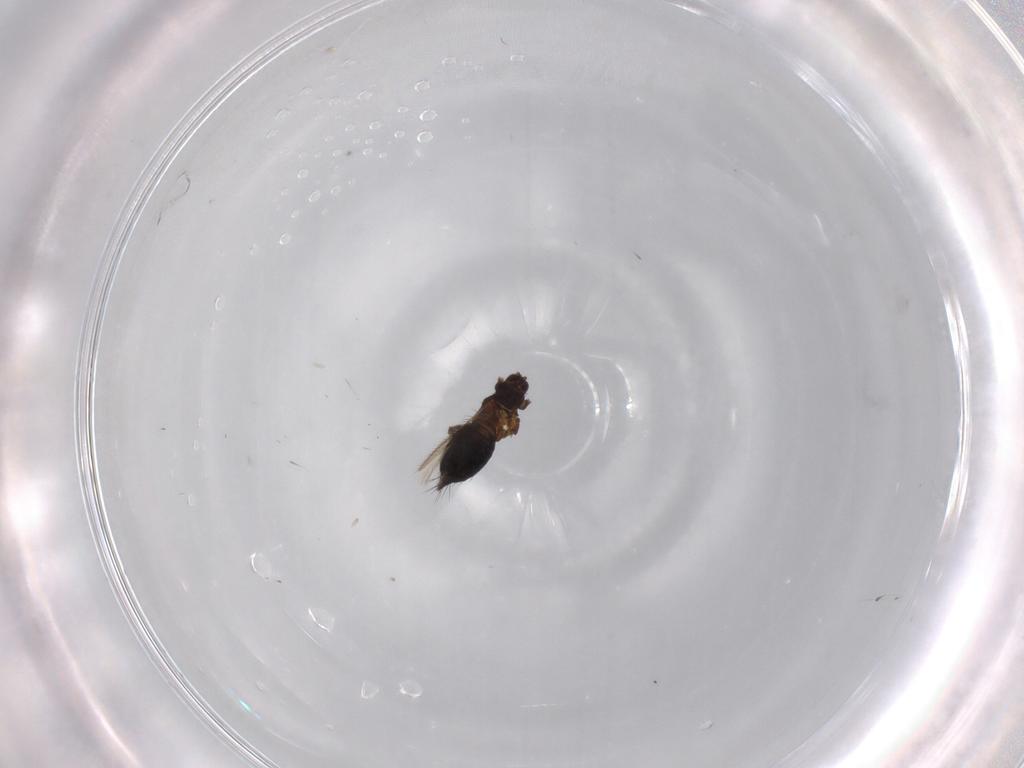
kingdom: Animalia
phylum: Arthropoda
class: Insecta
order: Thysanoptera
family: Thripidae
